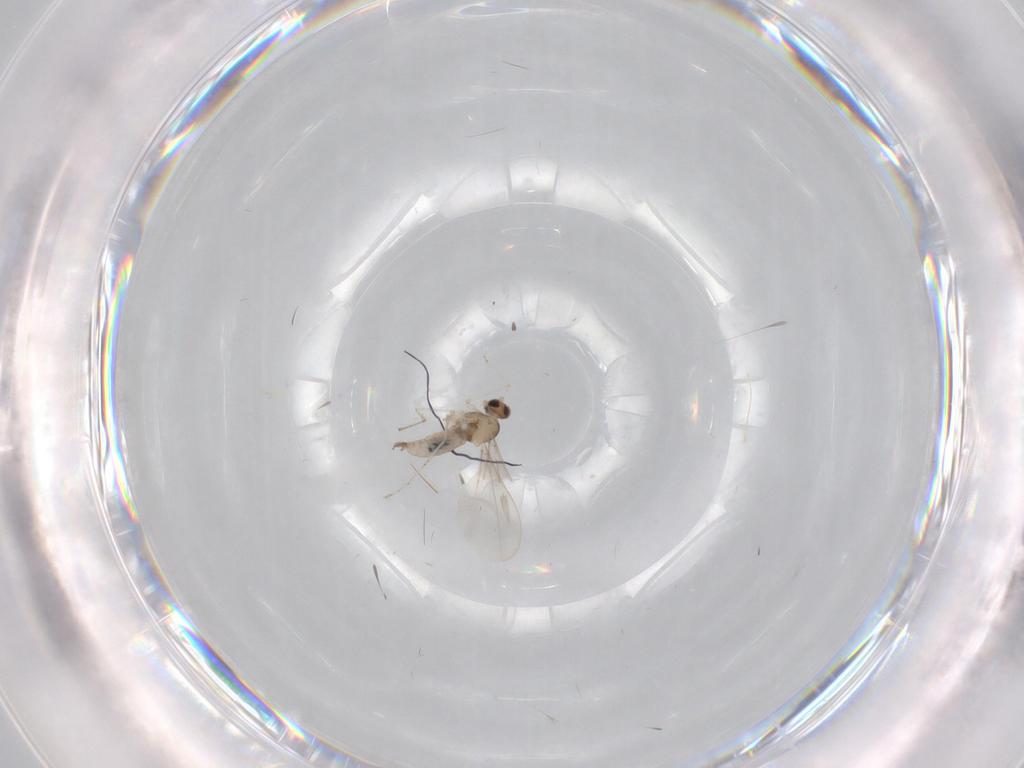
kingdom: Animalia
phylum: Arthropoda
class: Insecta
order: Diptera
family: Cecidomyiidae
